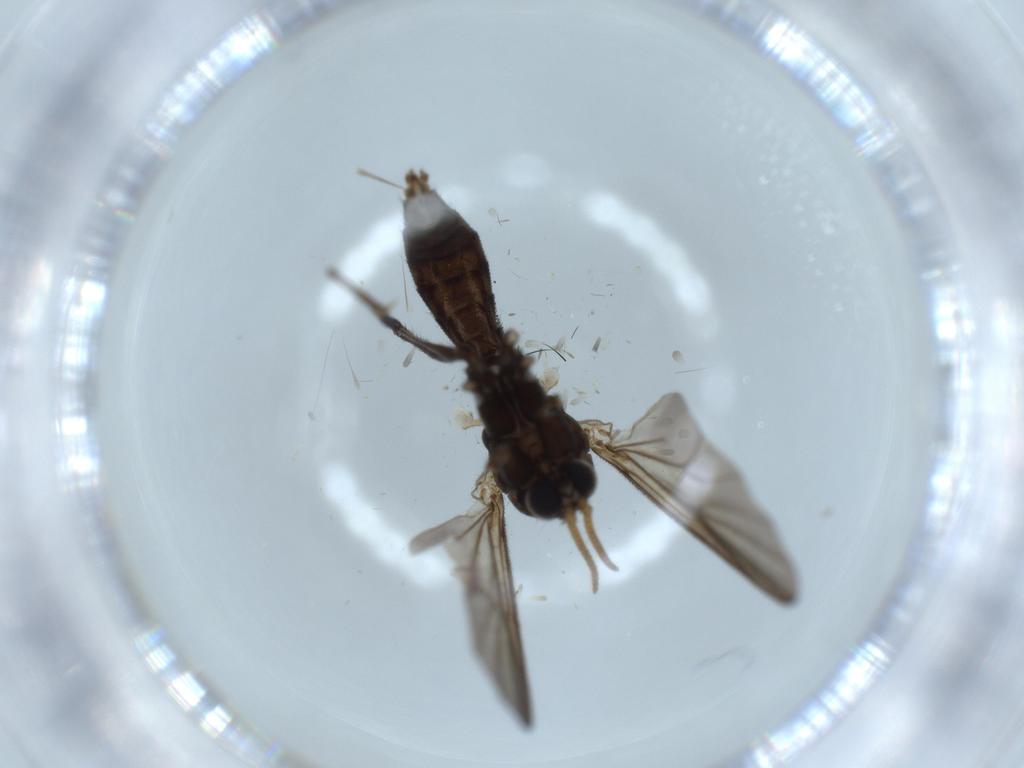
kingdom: Animalia
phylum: Arthropoda
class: Insecta
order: Diptera
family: Mycetophilidae
